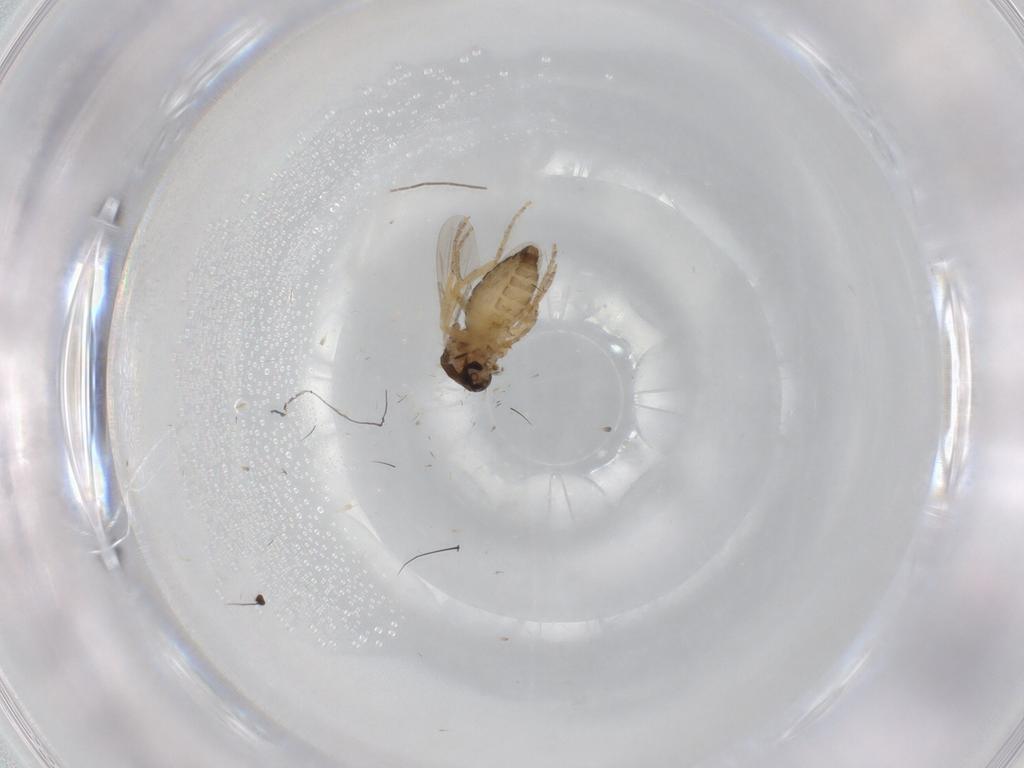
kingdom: Animalia
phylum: Arthropoda
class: Insecta
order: Diptera
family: Ceratopogonidae
